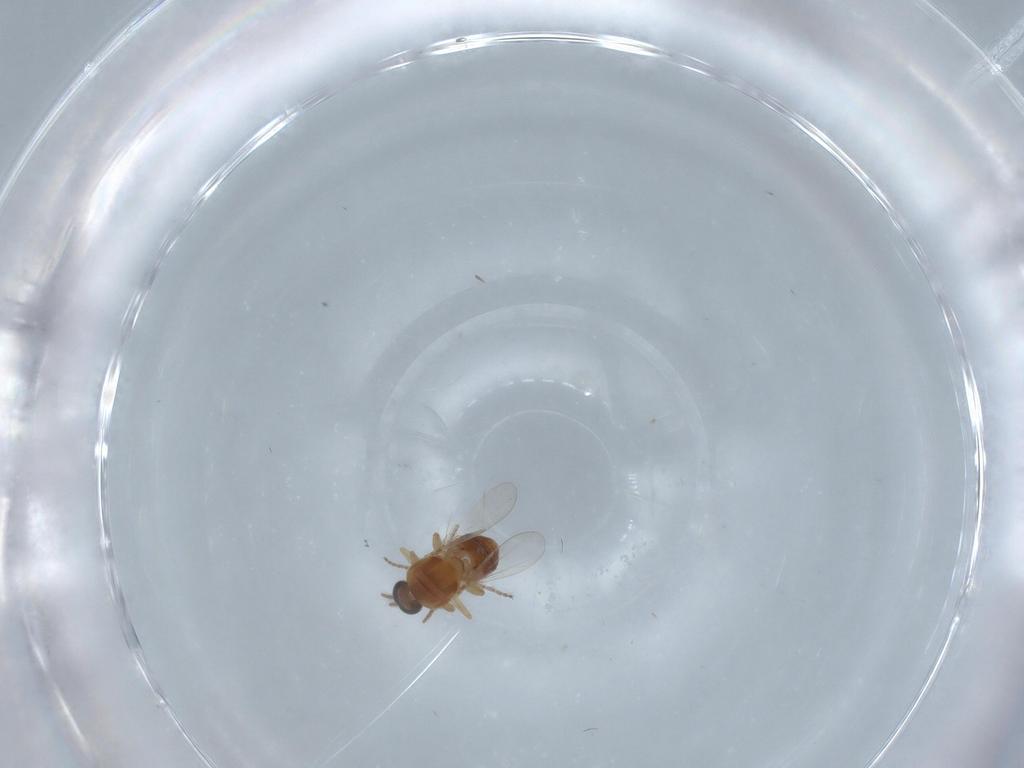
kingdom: Animalia
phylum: Arthropoda
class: Insecta
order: Diptera
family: Ceratopogonidae
